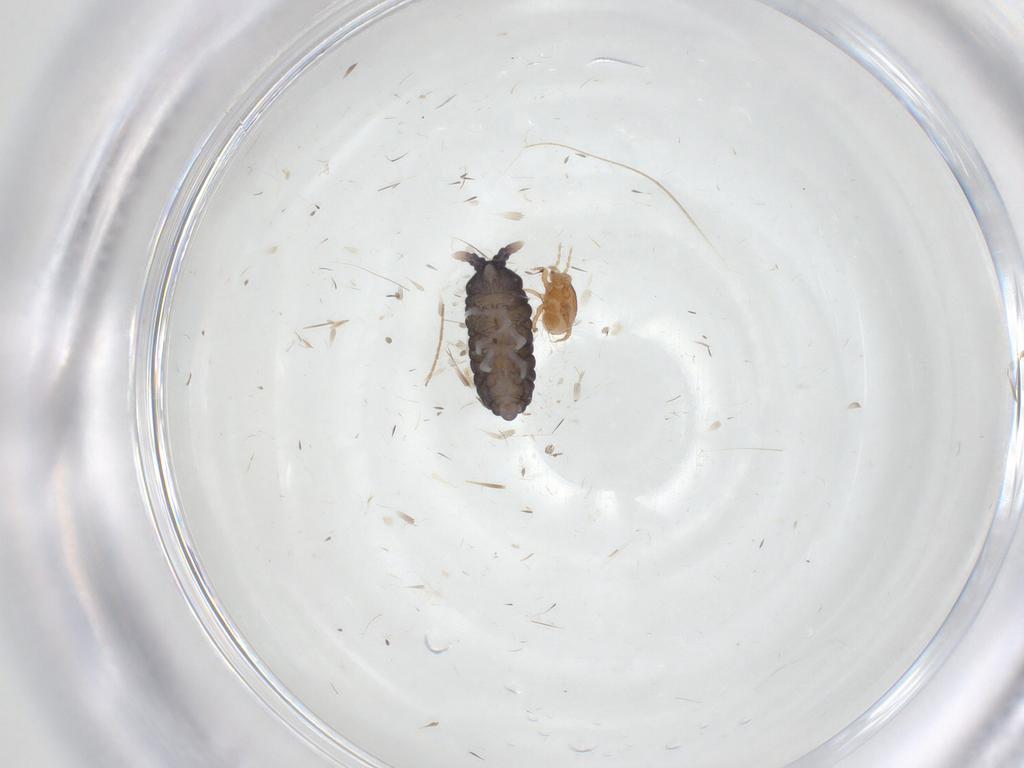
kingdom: Animalia
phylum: Arthropoda
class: Collembola
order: Poduromorpha
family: Neanuridae
